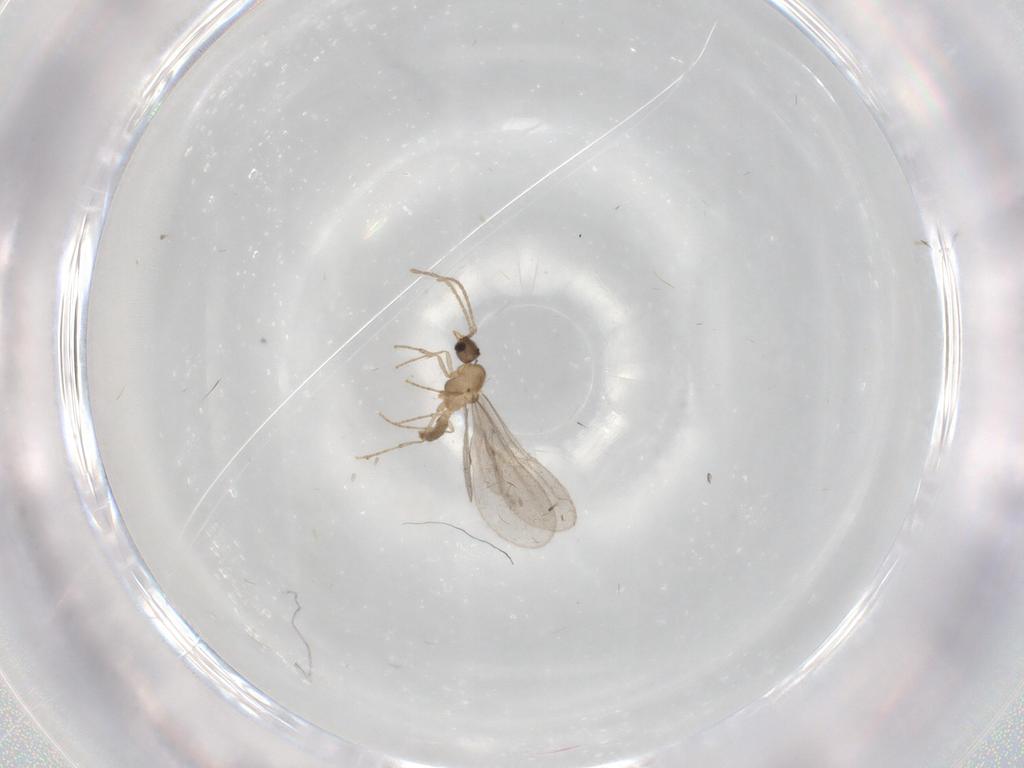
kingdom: Animalia
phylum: Arthropoda
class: Insecta
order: Hymenoptera
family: Formicidae
